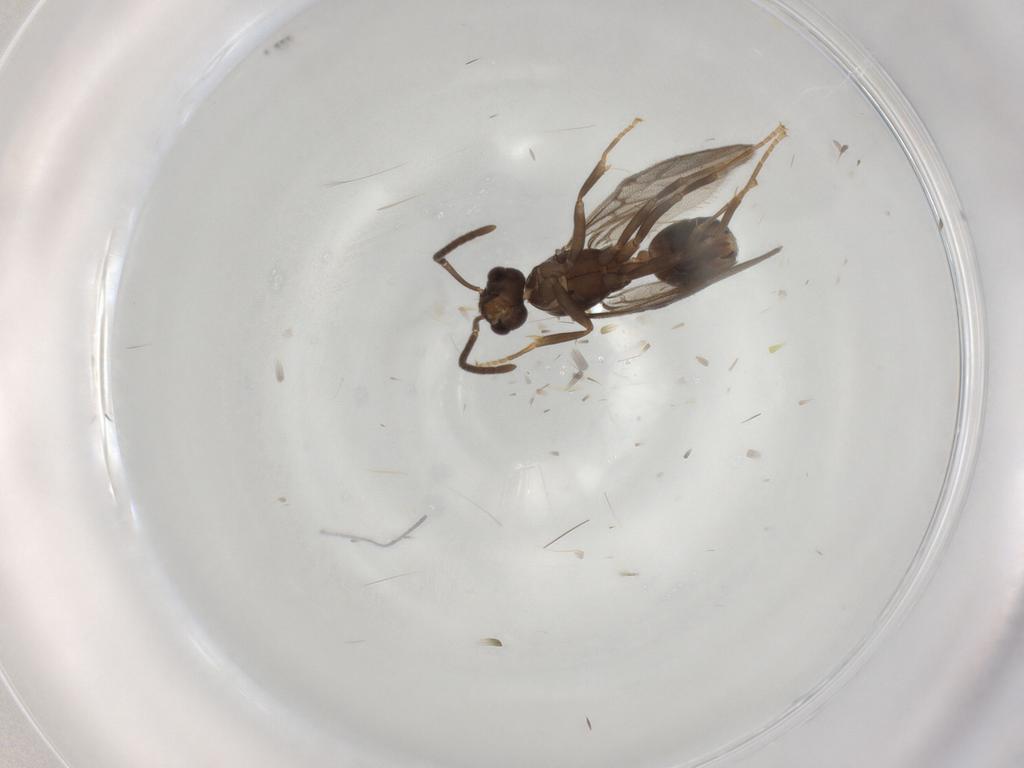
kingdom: Animalia
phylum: Arthropoda
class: Insecta
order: Hymenoptera
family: Formicidae
